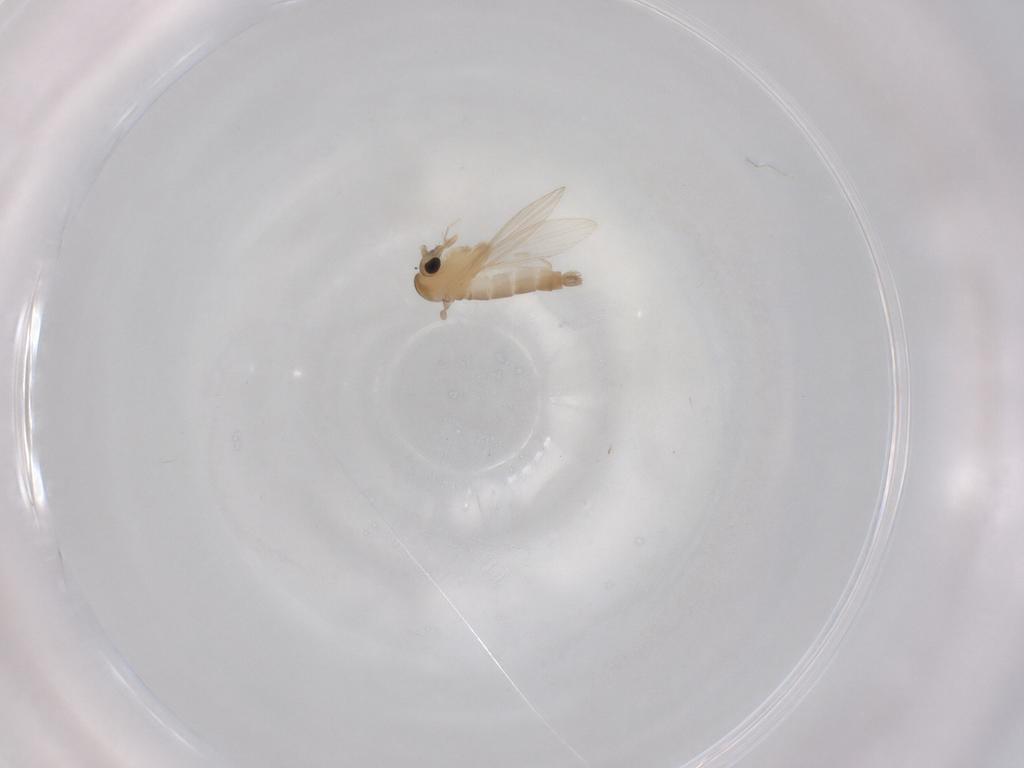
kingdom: Animalia
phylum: Arthropoda
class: Insecta
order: Diptera
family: Psychodidae
